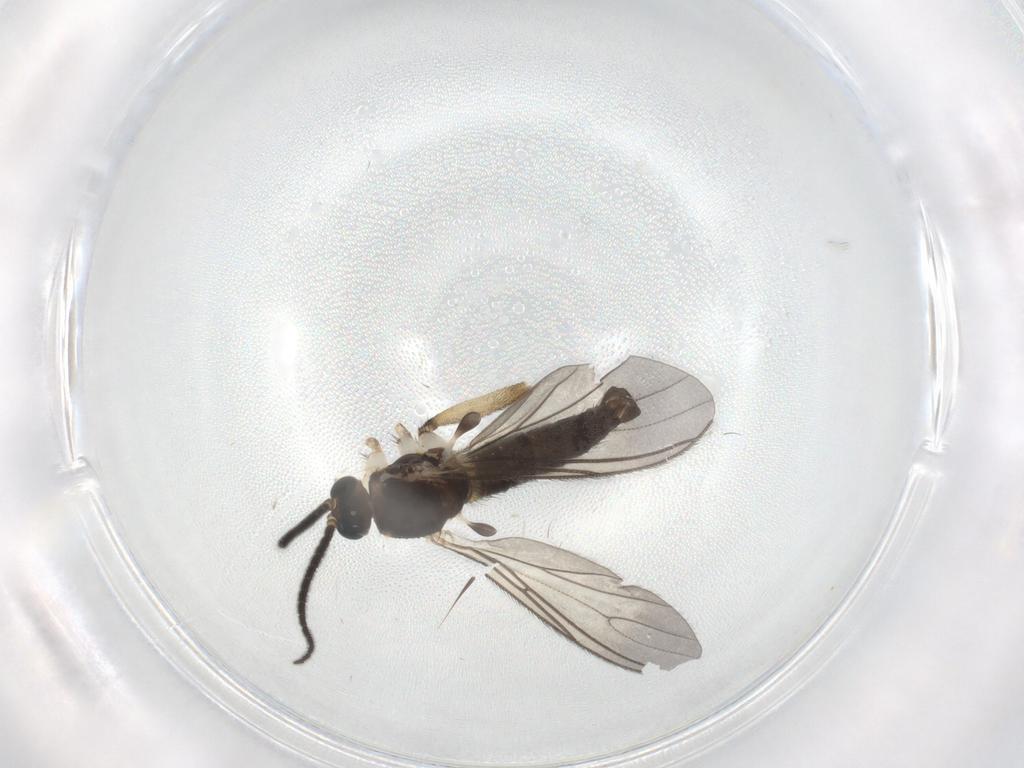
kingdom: Animalia
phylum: Arthropoda
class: Insecta
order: Diptera
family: Sciaridae
